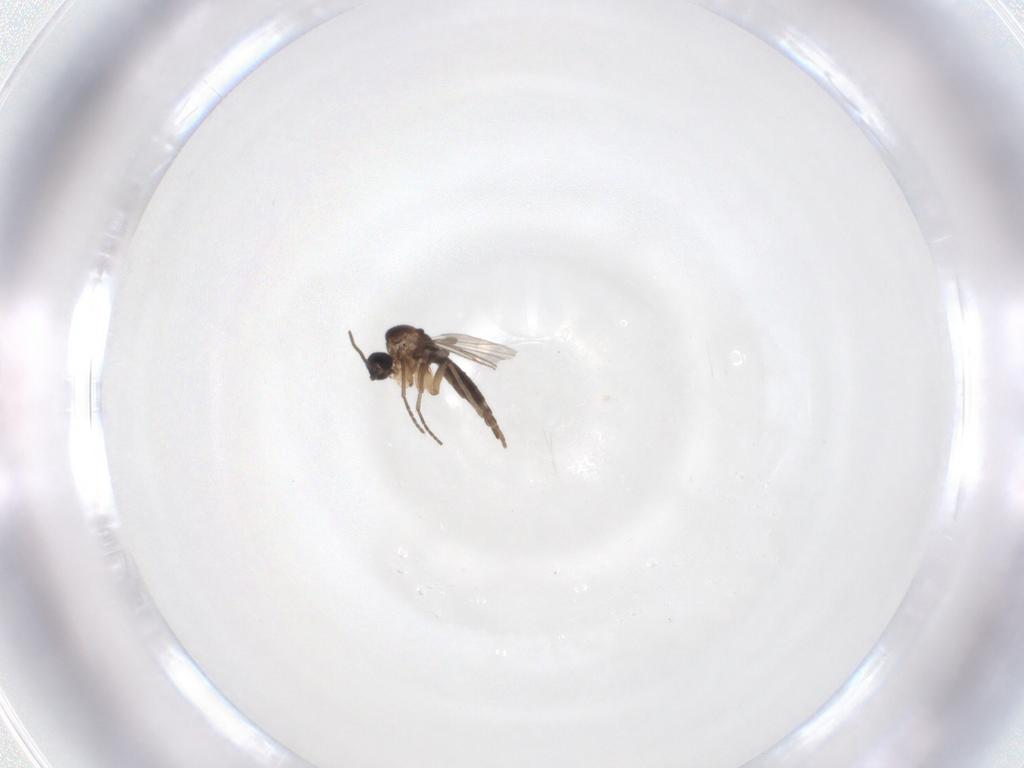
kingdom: Animalia
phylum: Arthropoda
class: Insecta
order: Diptera
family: Sciaridae
